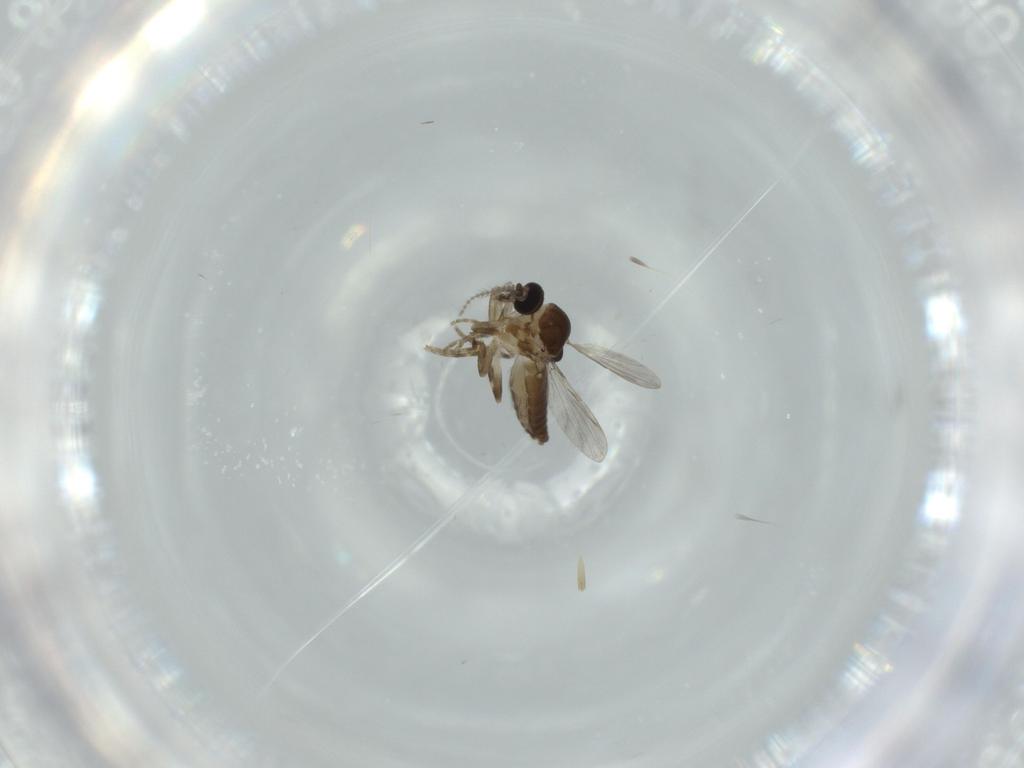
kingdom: Animalia
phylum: Arthropoda
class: Insecta
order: Diptera
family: Ceratopogonidae
